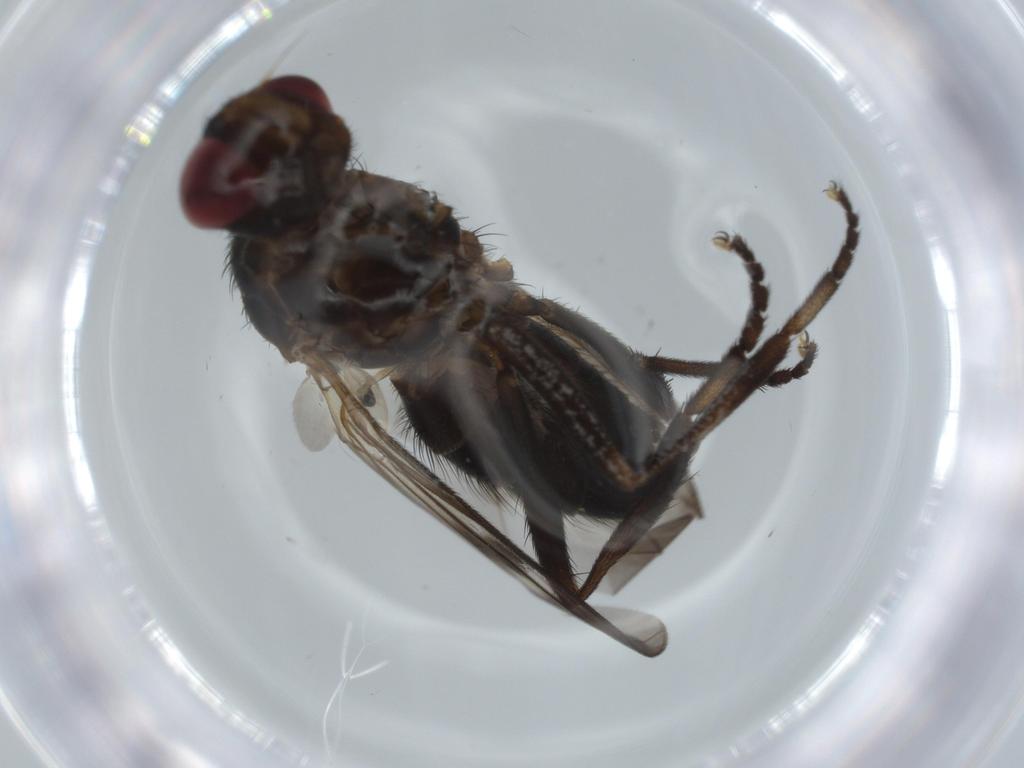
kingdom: Animalia
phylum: Arthropoda
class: Insecta
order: Diptera
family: Calliphoridae
